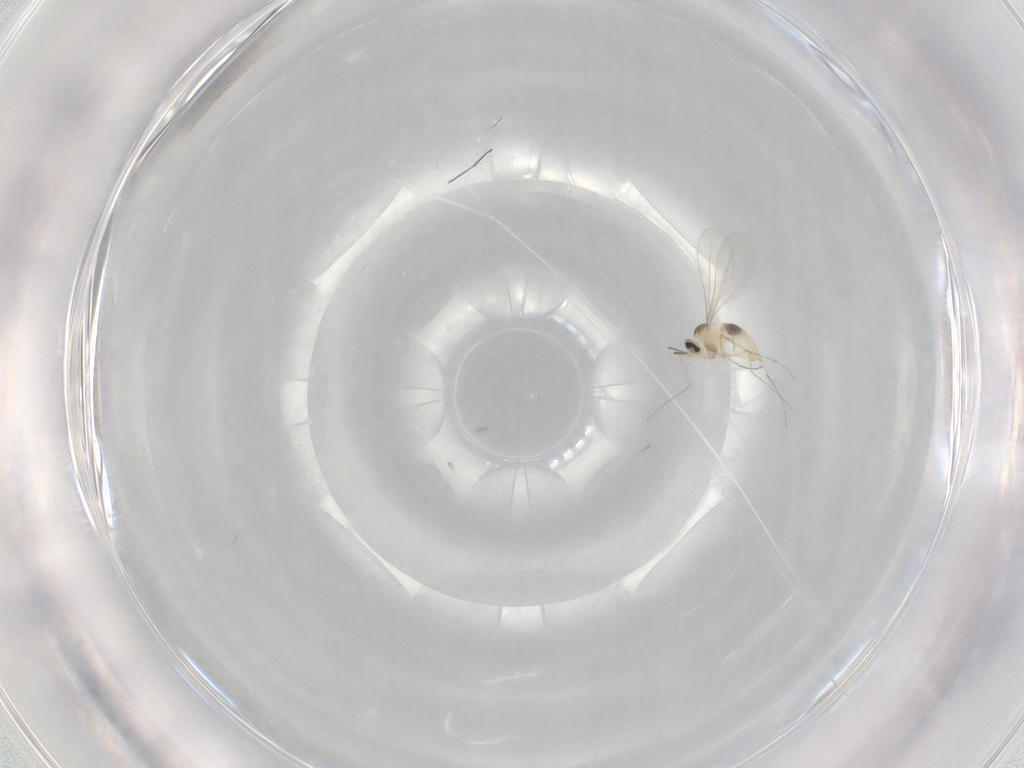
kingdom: Animalia
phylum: Arthropoda
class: Insecta
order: Diptera
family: Cecidomyiidae
